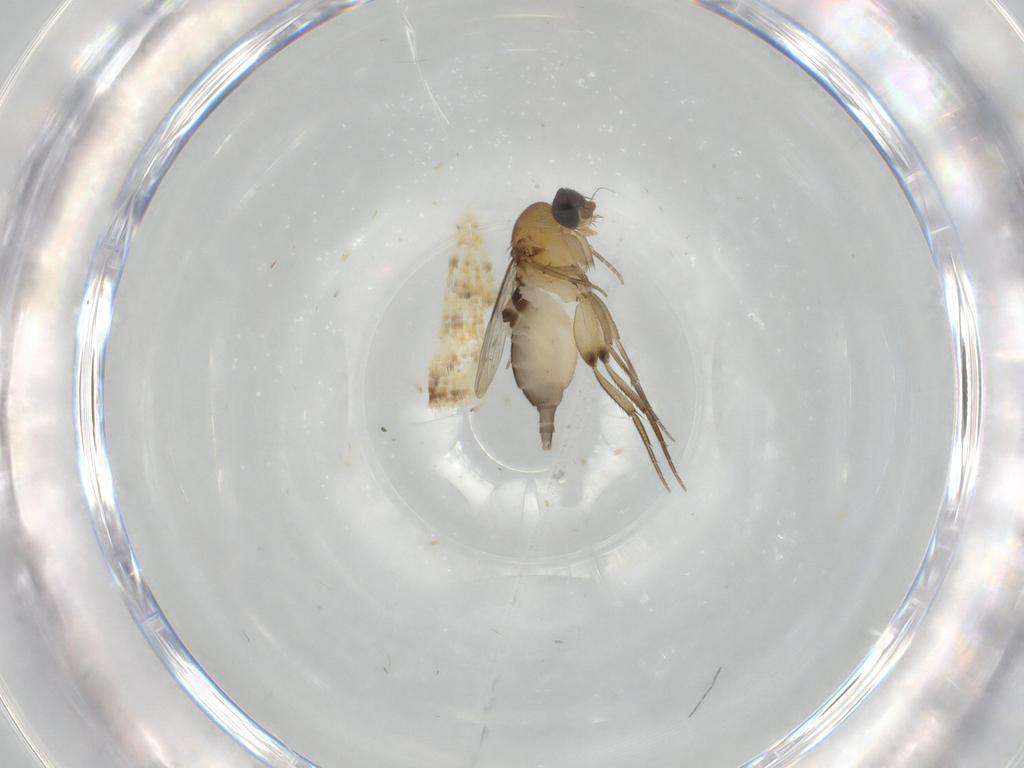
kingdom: Animalia
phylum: Arthropoda
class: Insecta
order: Diptera
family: Phoridae
